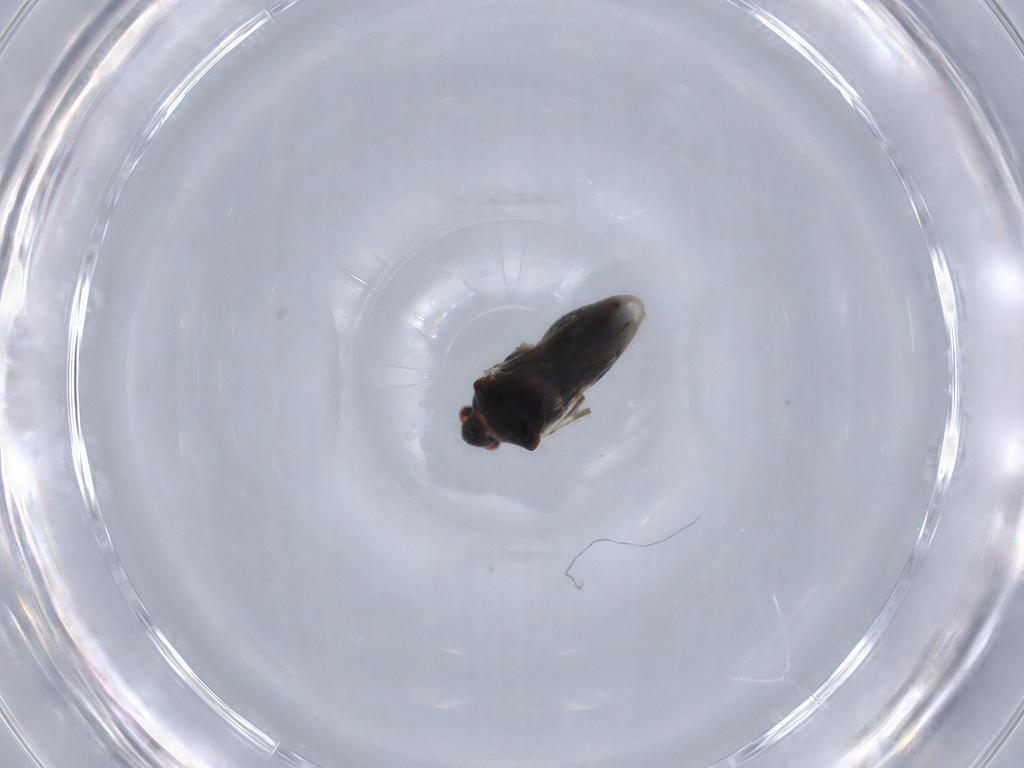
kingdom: Animalia
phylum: Arthropoda
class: Insecta
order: Hemiptera
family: Veliidae
